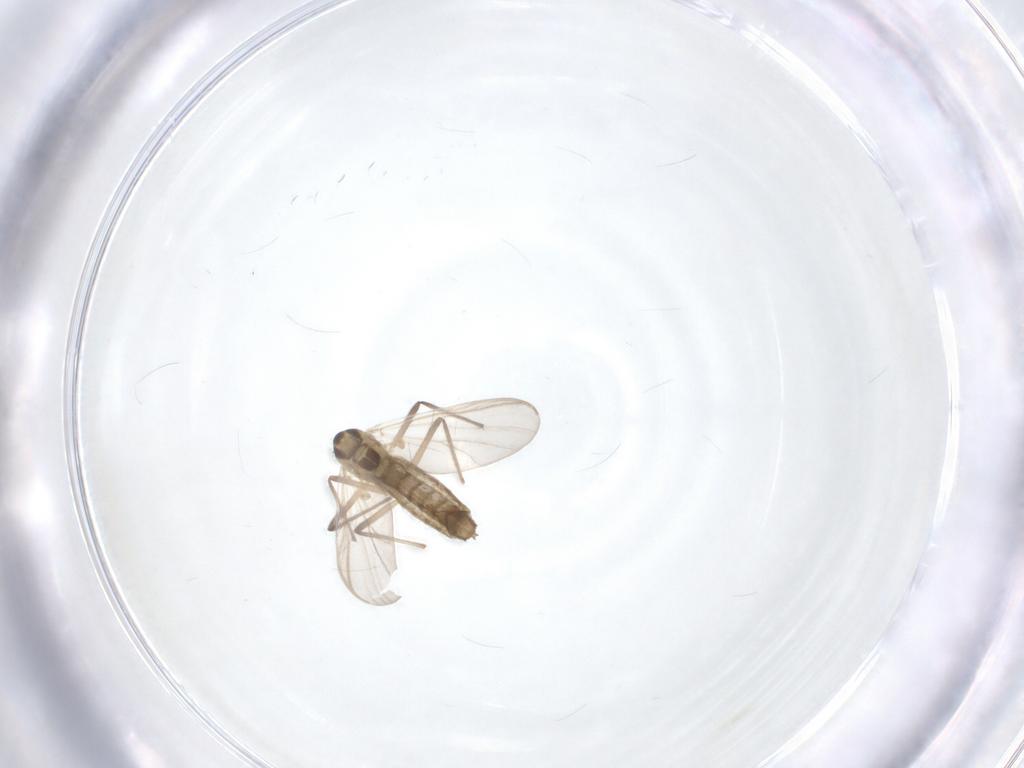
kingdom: Animalia
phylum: Arthropoda
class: Insecta
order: Diptera
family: Chironomidae
